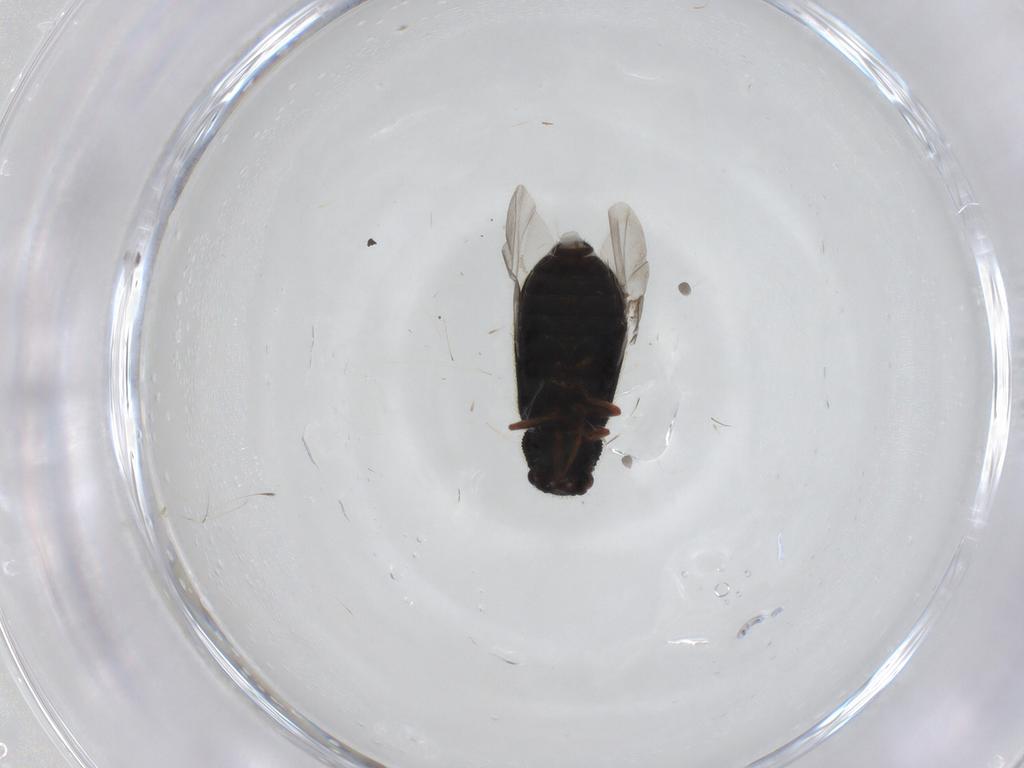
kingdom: Animalia
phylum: Arthropoda
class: Insecta
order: Coleoptera
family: Melyridae
